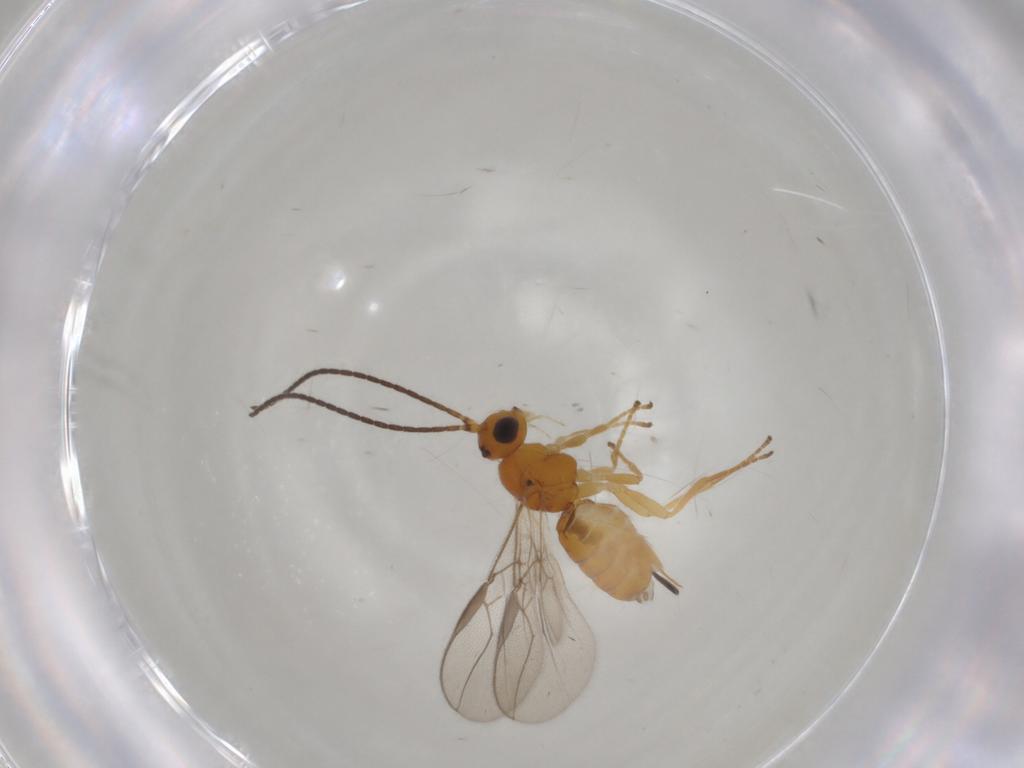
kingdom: Animalia
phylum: Arthropoda
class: Insecta
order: Hymenoptera
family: Braconidae
